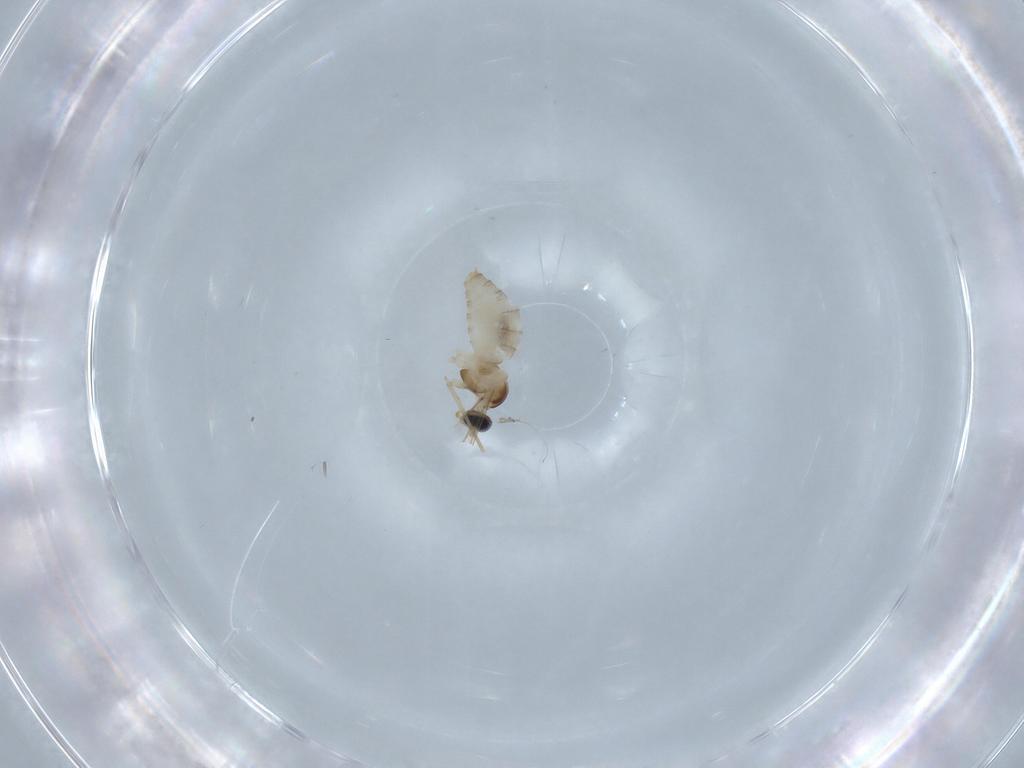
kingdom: Animalia
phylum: Arthropoda
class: Insecta
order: Diptera
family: Cecidomyiidae
